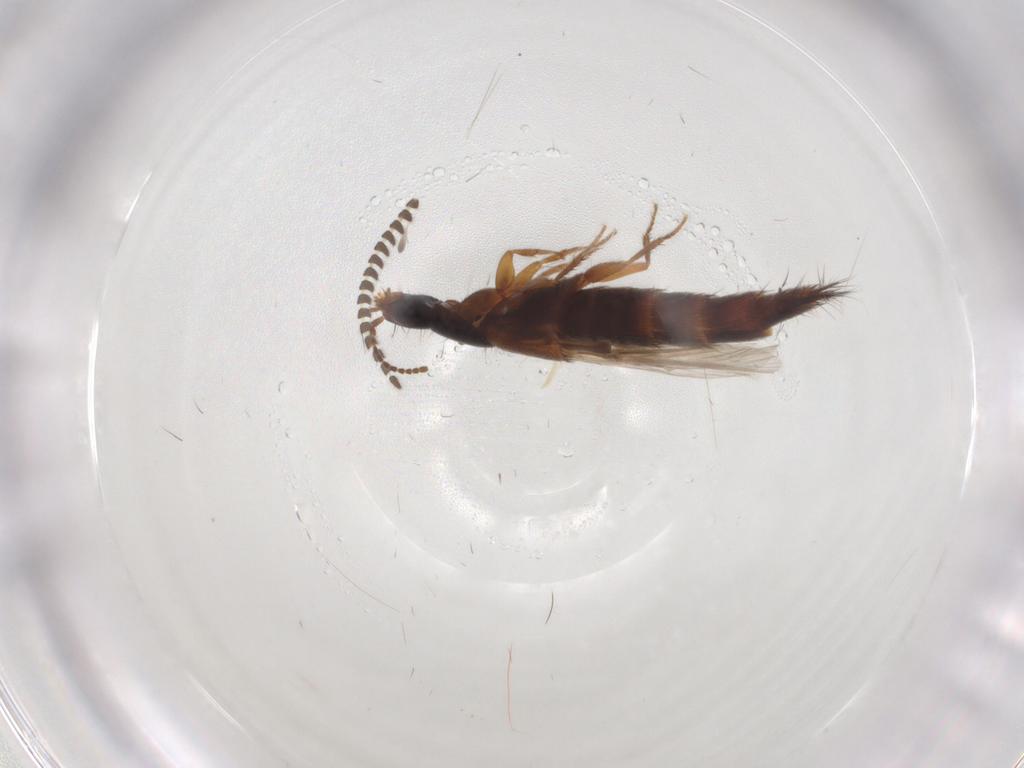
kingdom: Animalia
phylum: Arthropoda
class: Insecta
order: Coleoptera
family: Staphylinidae
